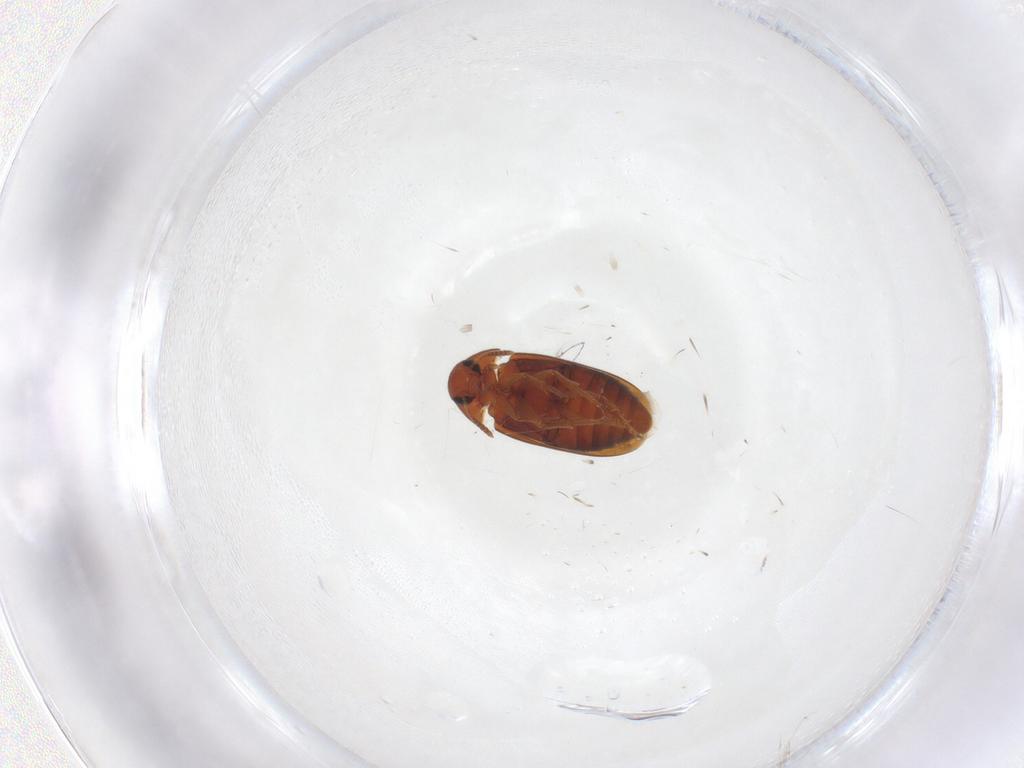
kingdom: Animalia
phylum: Arthropoda
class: Insecta
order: Coleoptera
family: Scraptiidae
